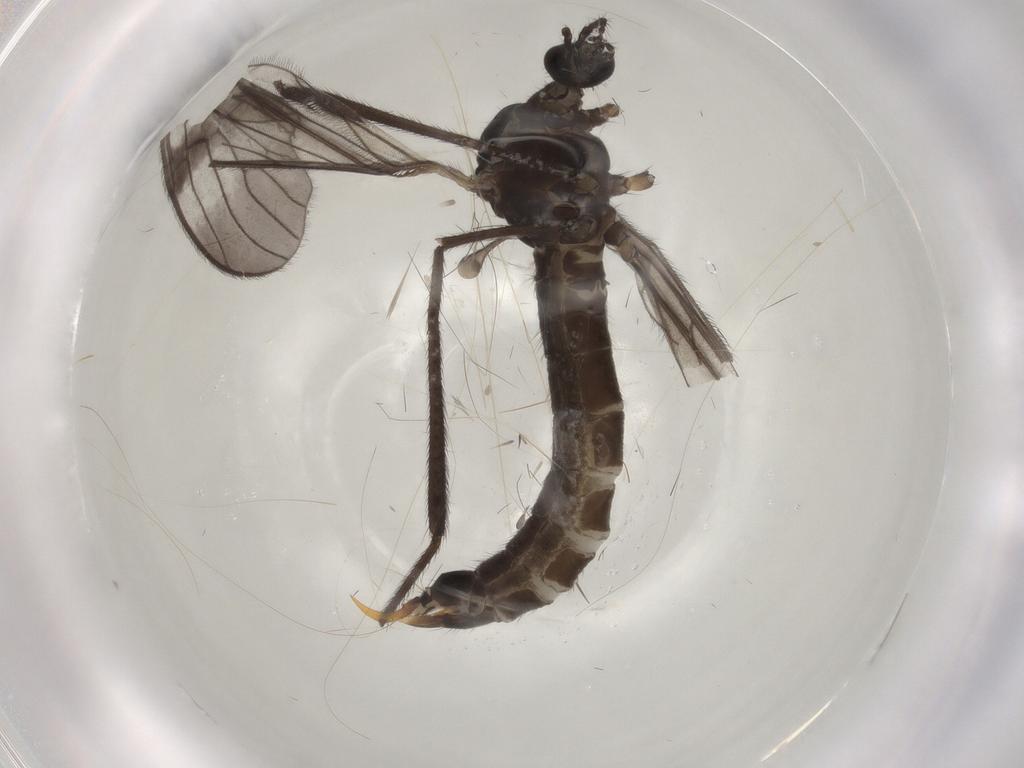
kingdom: Animalia
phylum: Arthropoda
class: Insecta
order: Diptera
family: Limoniidae
